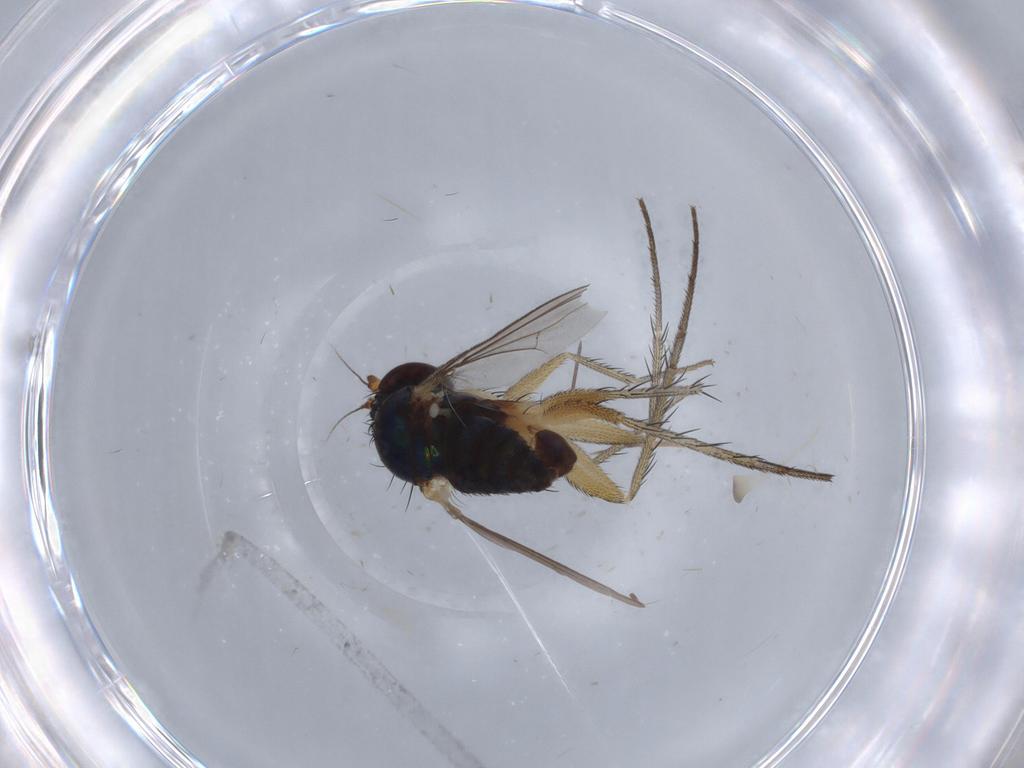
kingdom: Animalia
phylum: Arthropoda
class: Insecta
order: Diptera
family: Dolichopodidae
